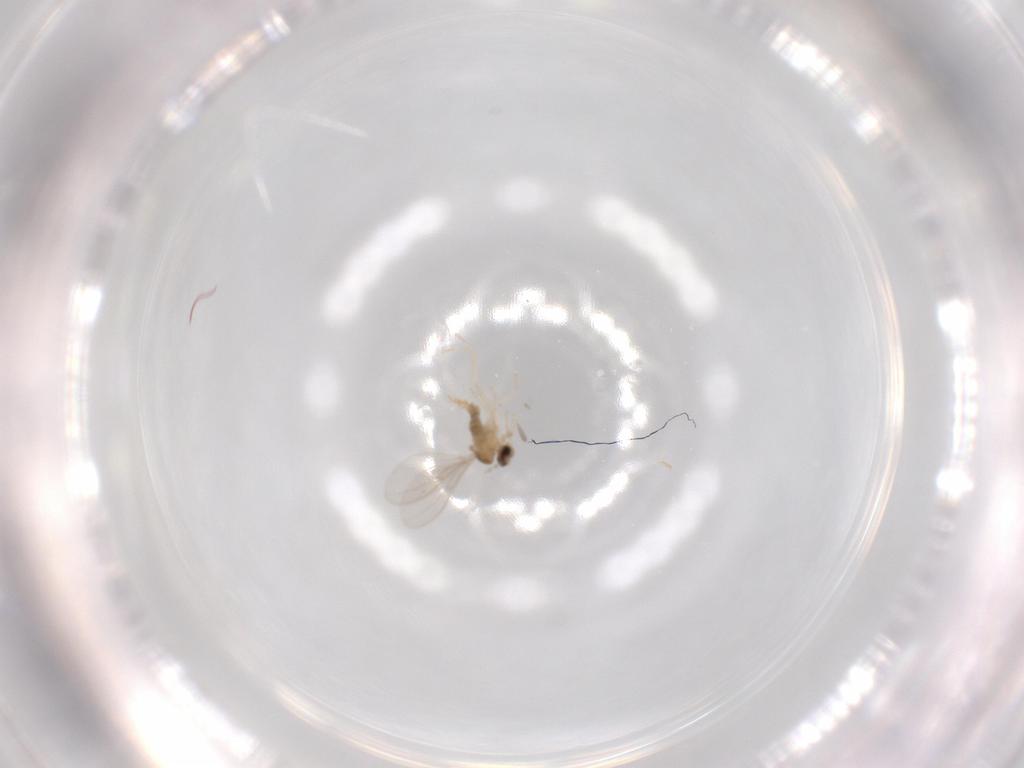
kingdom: Animalia
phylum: Arthropoda
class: Insecta
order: Diptera
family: Cecidomyiidae
